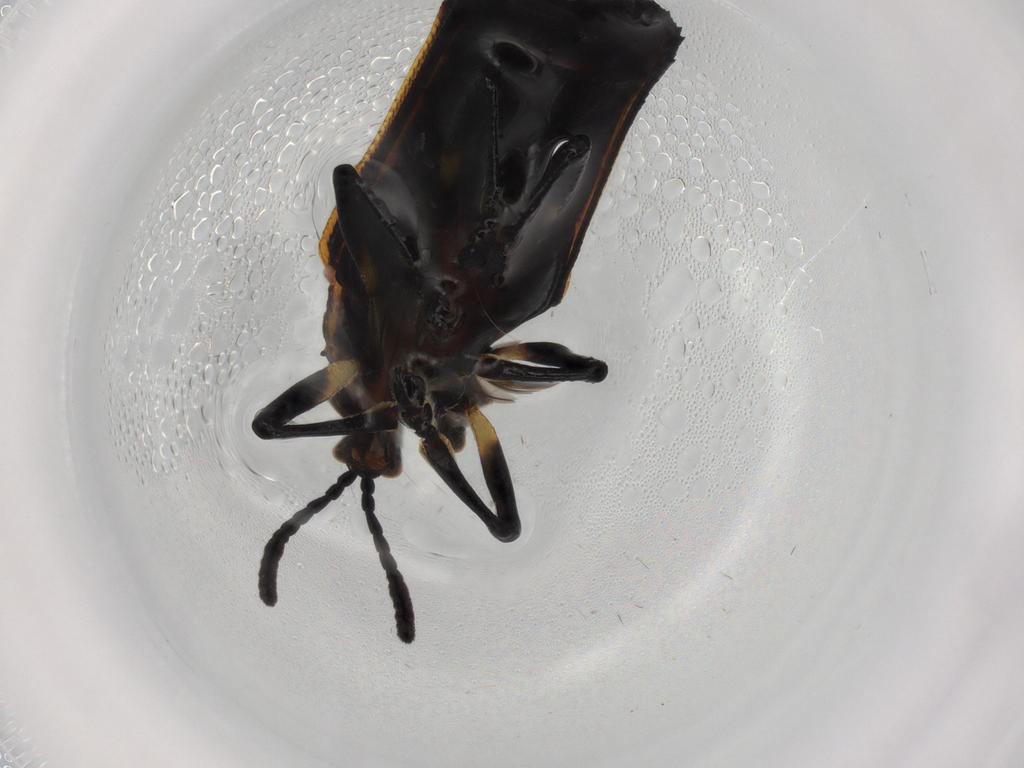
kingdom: Animalia
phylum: Arthropoda
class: Insecta
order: Coleoptera
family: Chrysomelidae
